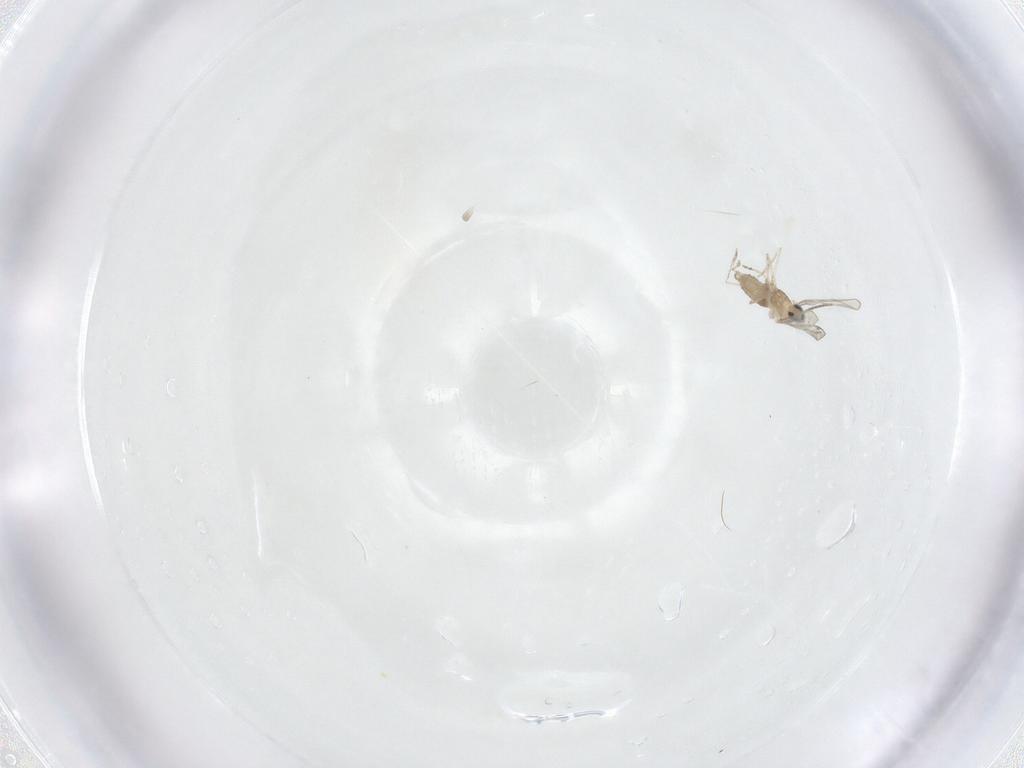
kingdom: Animalia
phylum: Arthropoda
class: Insecta
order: Diptera
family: Cecidomyiidae
